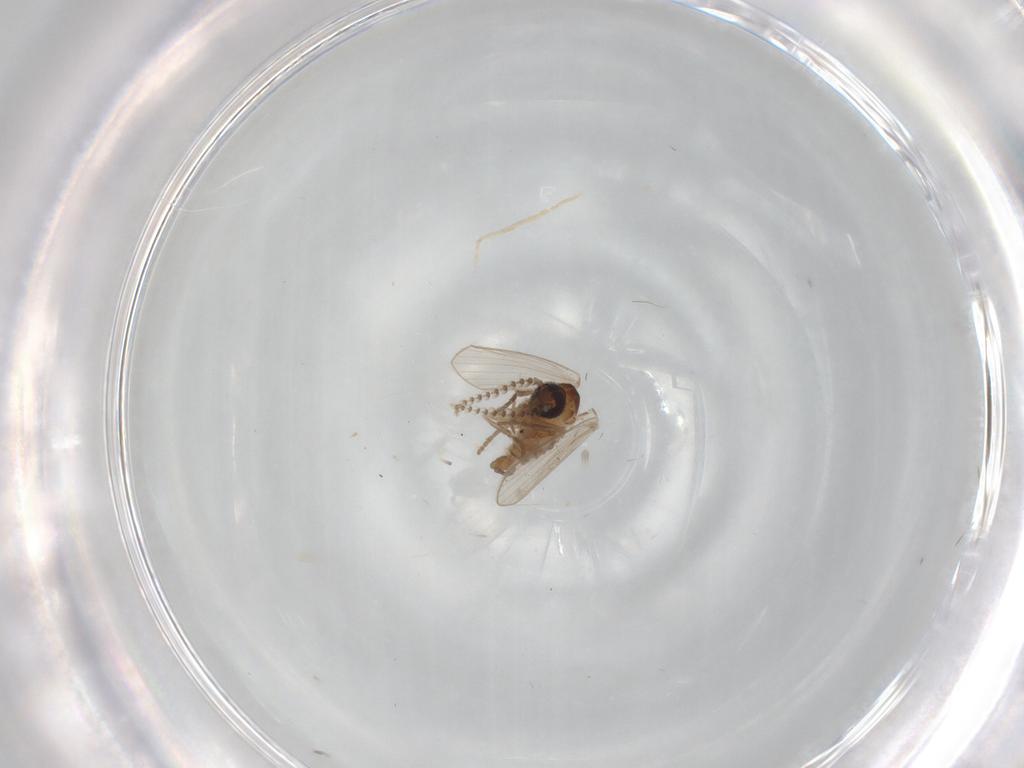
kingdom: Animalia
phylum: Arthropoda
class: Insecta
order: Diptera
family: Psychodidae
